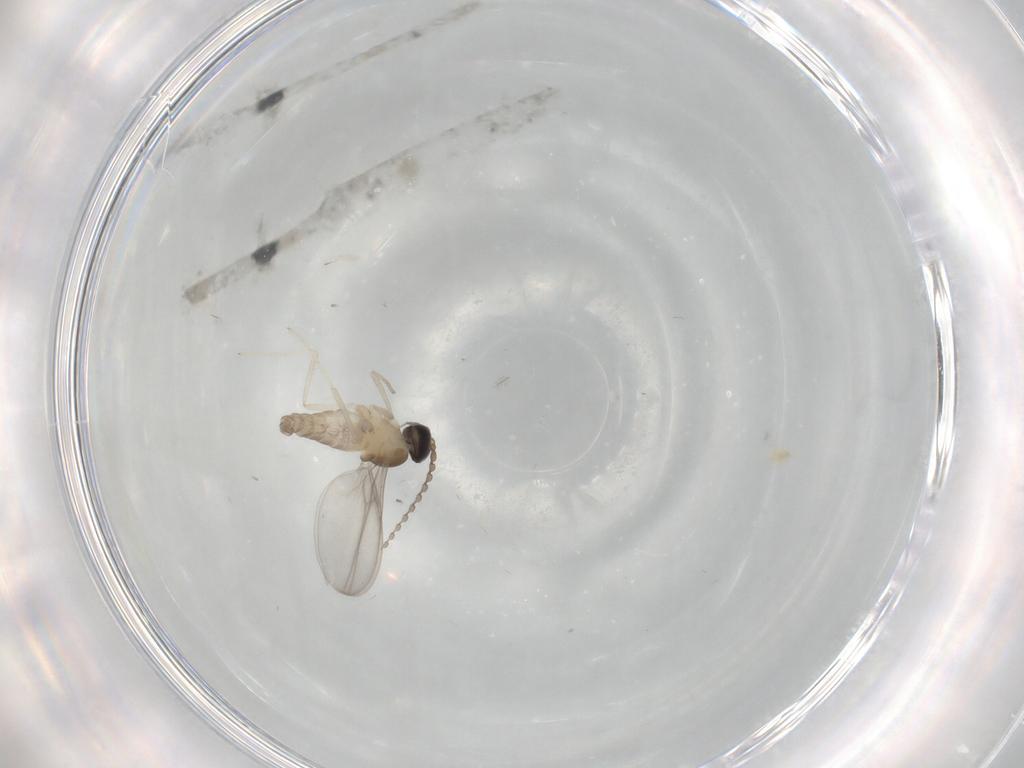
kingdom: Animalia
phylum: Arthropoda
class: Insecta
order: Diptera
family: Cecidomyiidae
